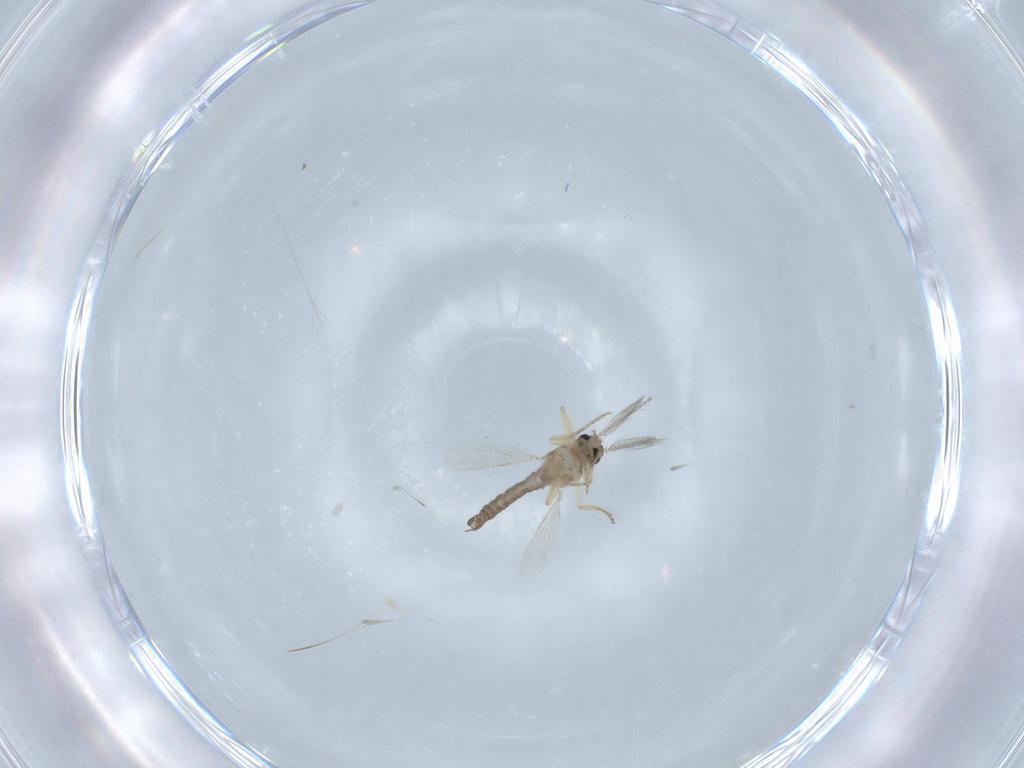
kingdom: Animalia
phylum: Arthropoda
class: Insecta
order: Diptera
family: Ceratopogonidae
